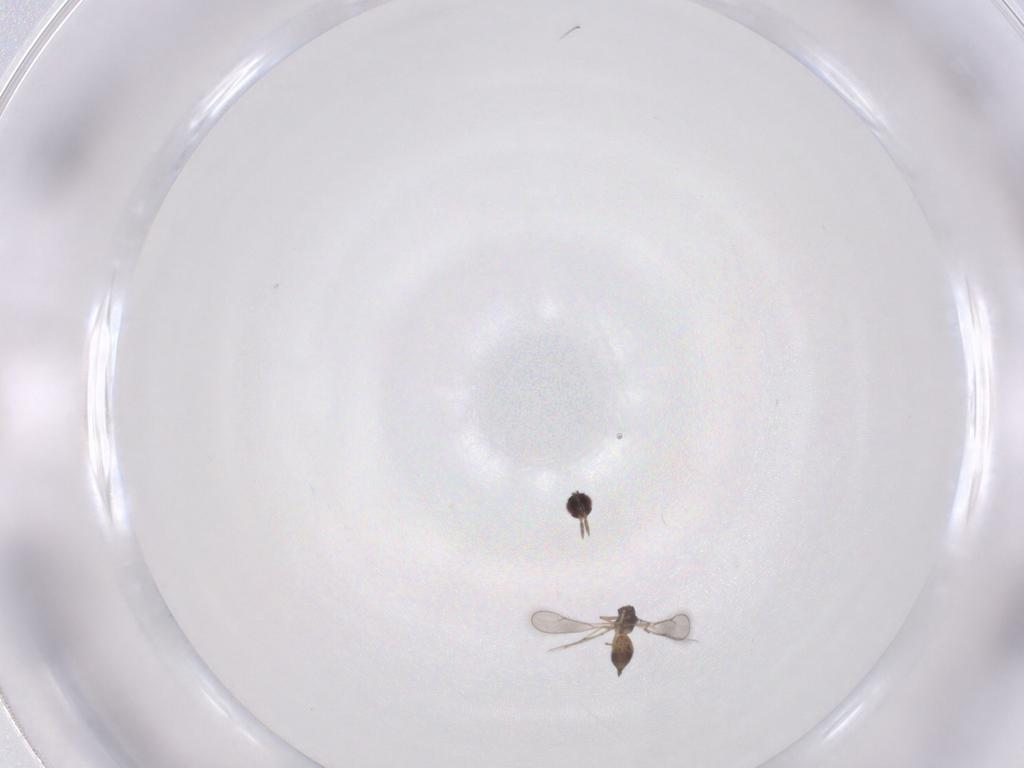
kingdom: Animalia
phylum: Arthropoda
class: Insecta
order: Hymenoptera
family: Eulophidae
